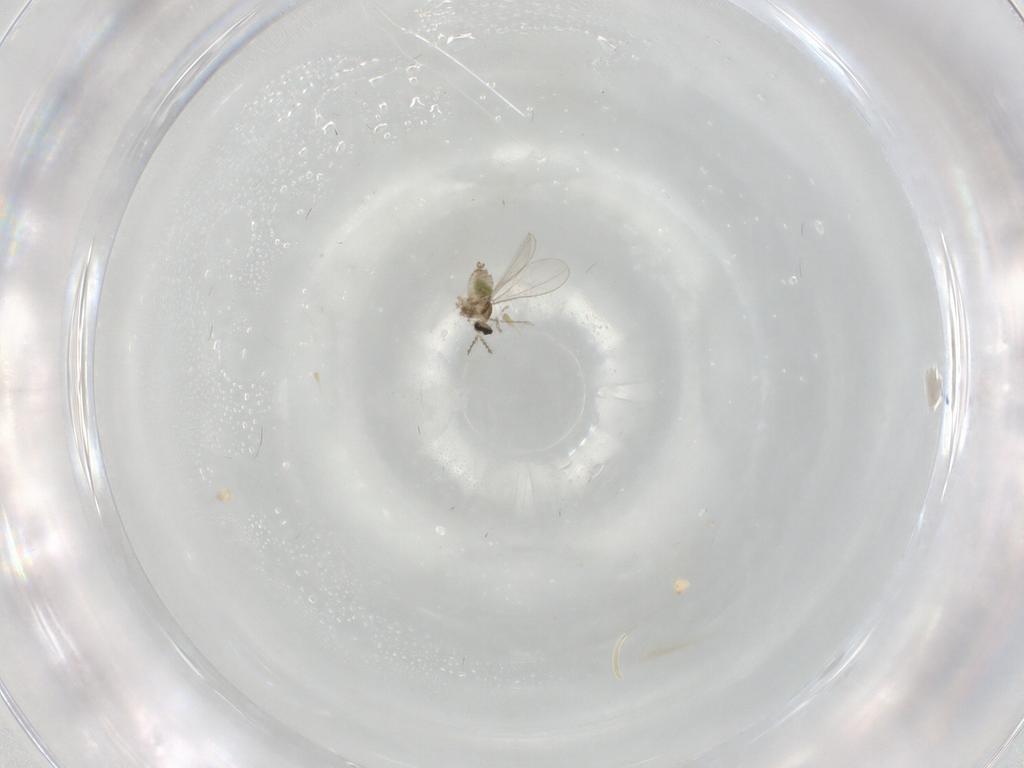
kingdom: Animalia
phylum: Arthropoda
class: Insecta
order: Diptera
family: Cecidomyiidae
